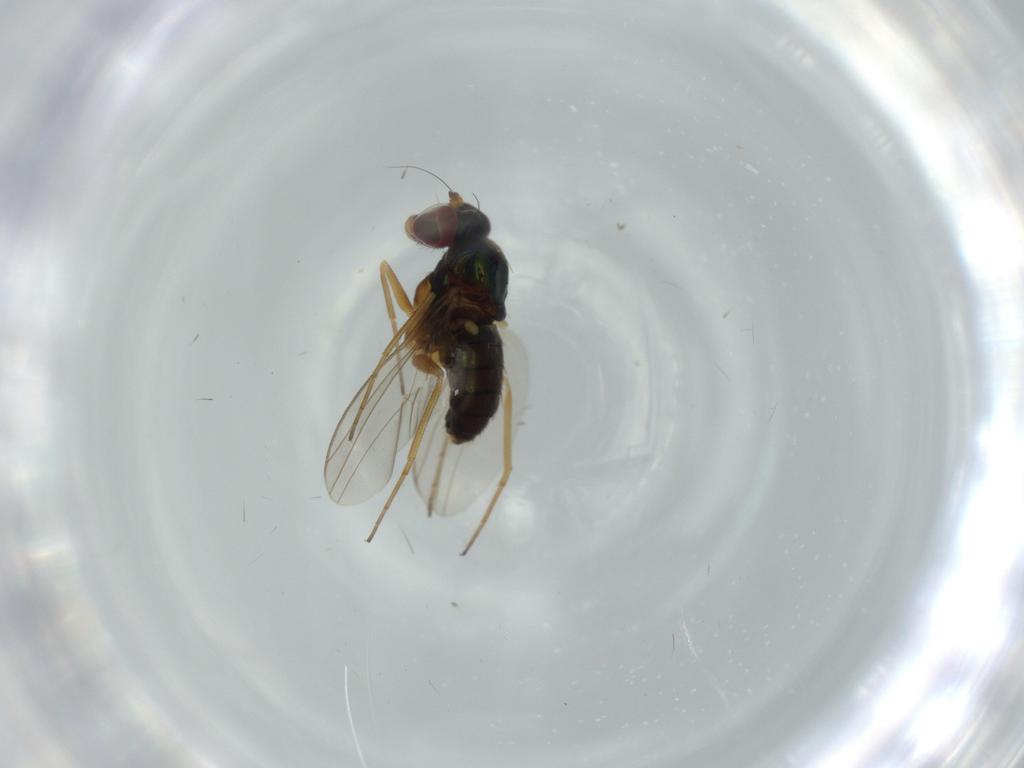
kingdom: Animalia
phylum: Arthropoda
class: Insecta
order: Diptera
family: Dolichopodidae
